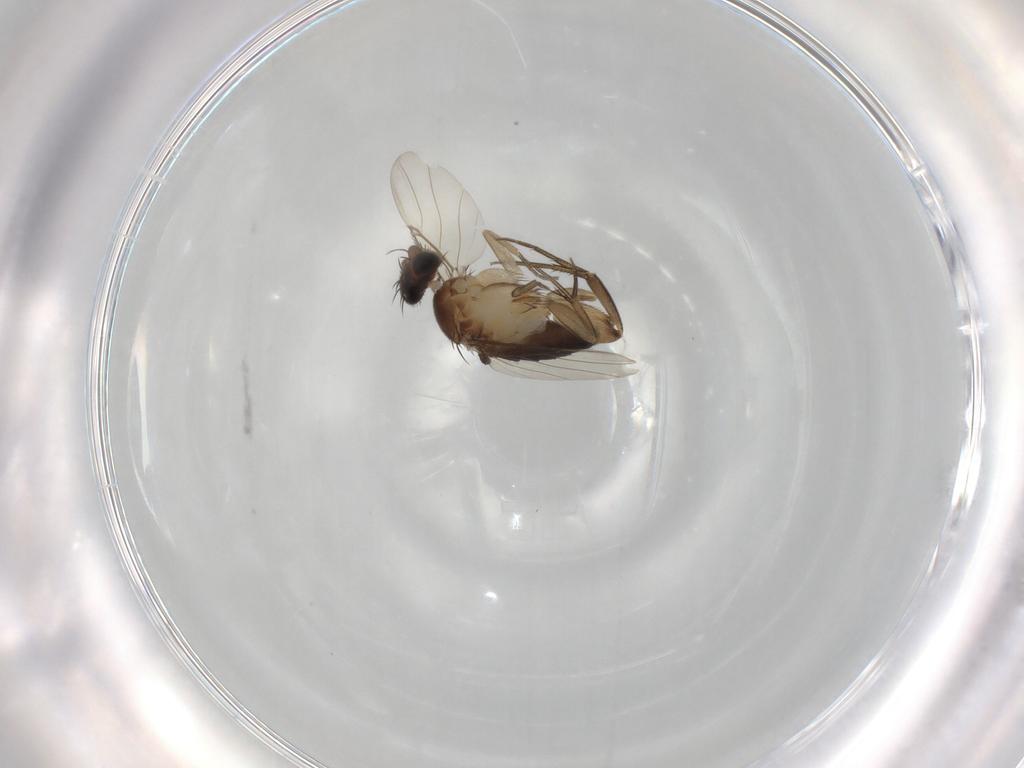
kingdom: Animalia
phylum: Arthropoda
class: Insecta
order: Diptera
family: Phoridae
